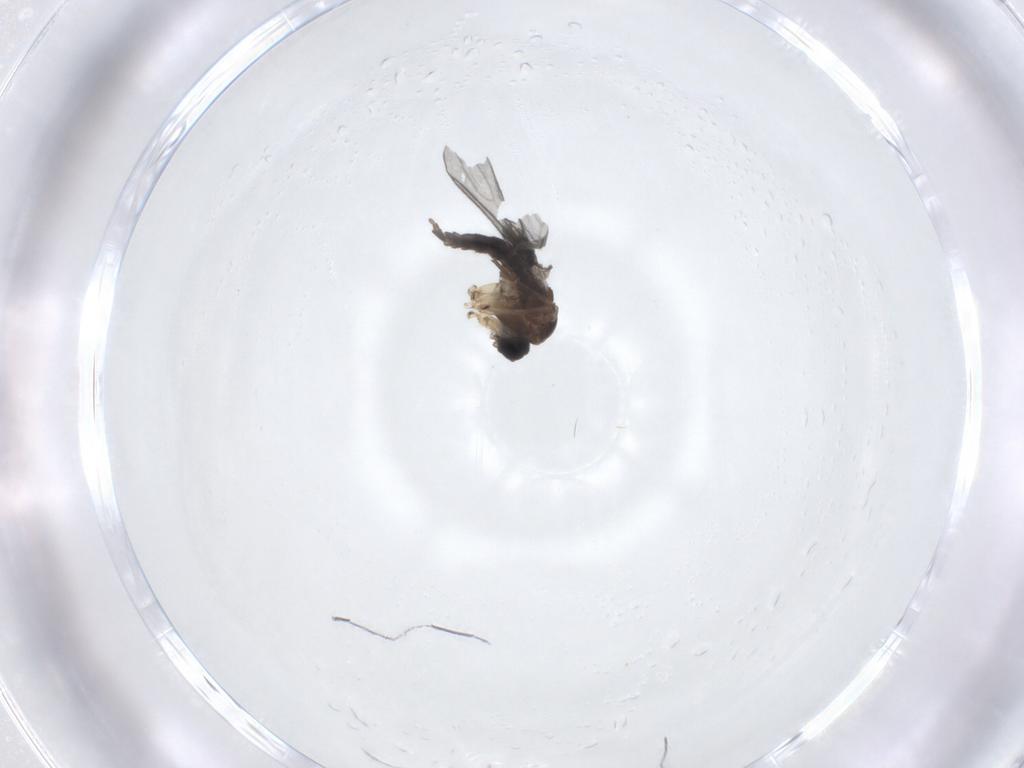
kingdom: Animalia
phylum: Arthropoda
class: Insecta
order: Diptera
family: Sciaridae
